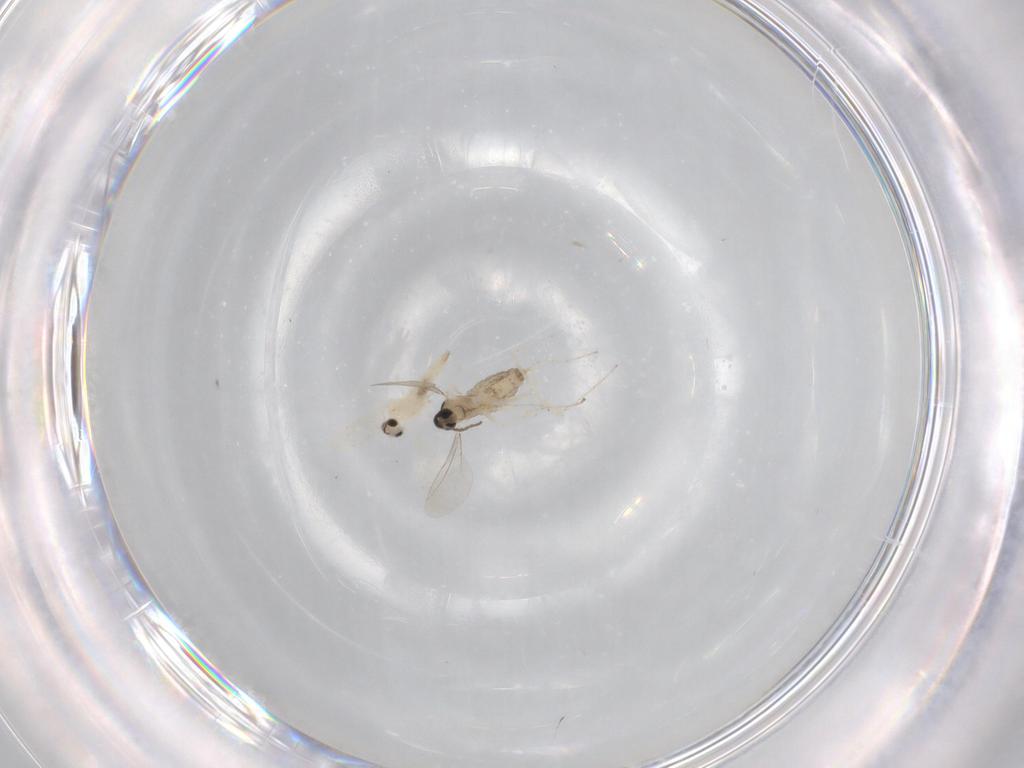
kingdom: Animalia
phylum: Arthropoda
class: Insecta
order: Diptera
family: Cecidomyiidae
